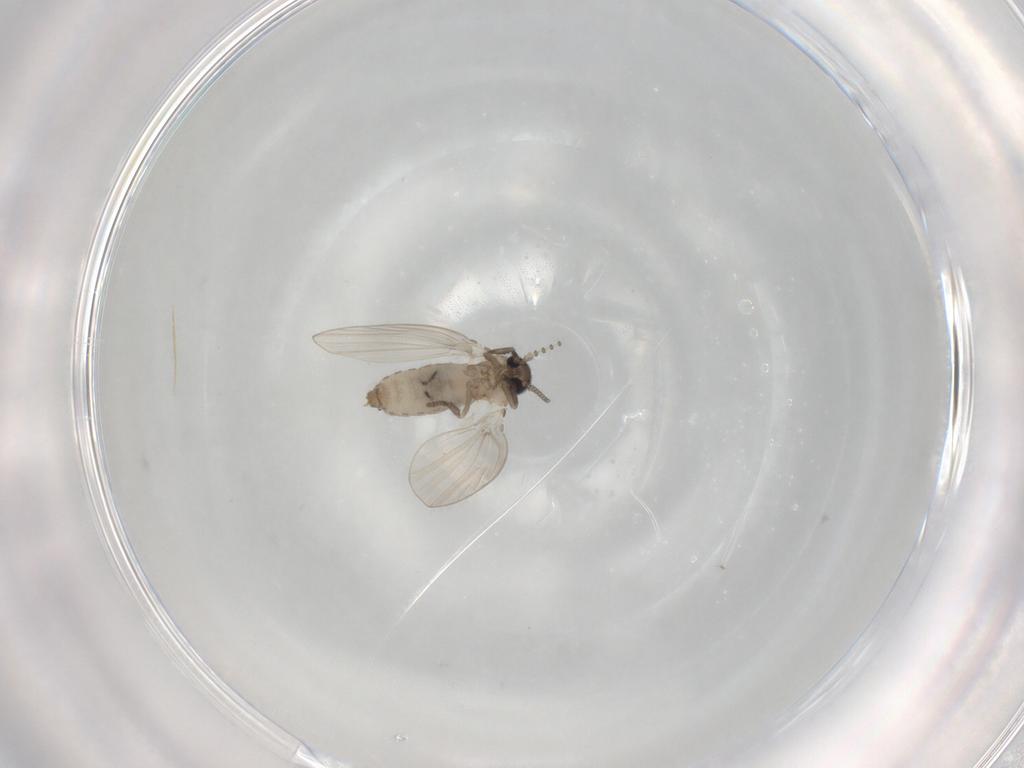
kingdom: Animalia
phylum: Arthropoda
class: Insecta
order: Diptera
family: Psychodidae
